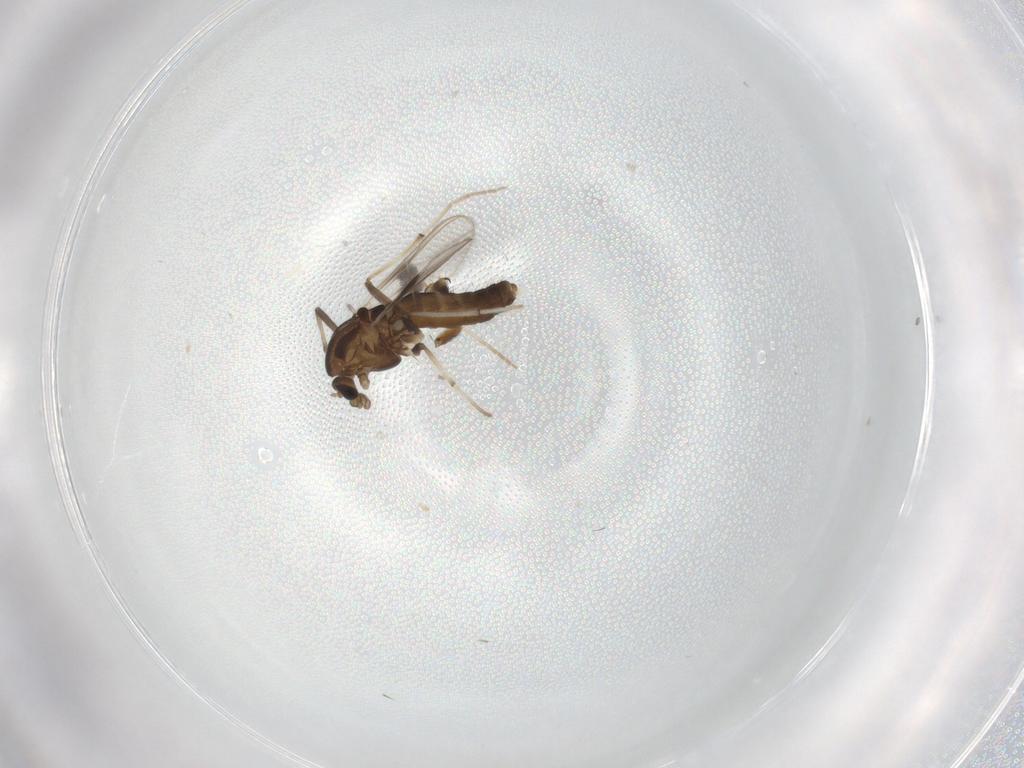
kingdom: Animalia
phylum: Arthropoda
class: Insecta
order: Diptera
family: Chironomidae
